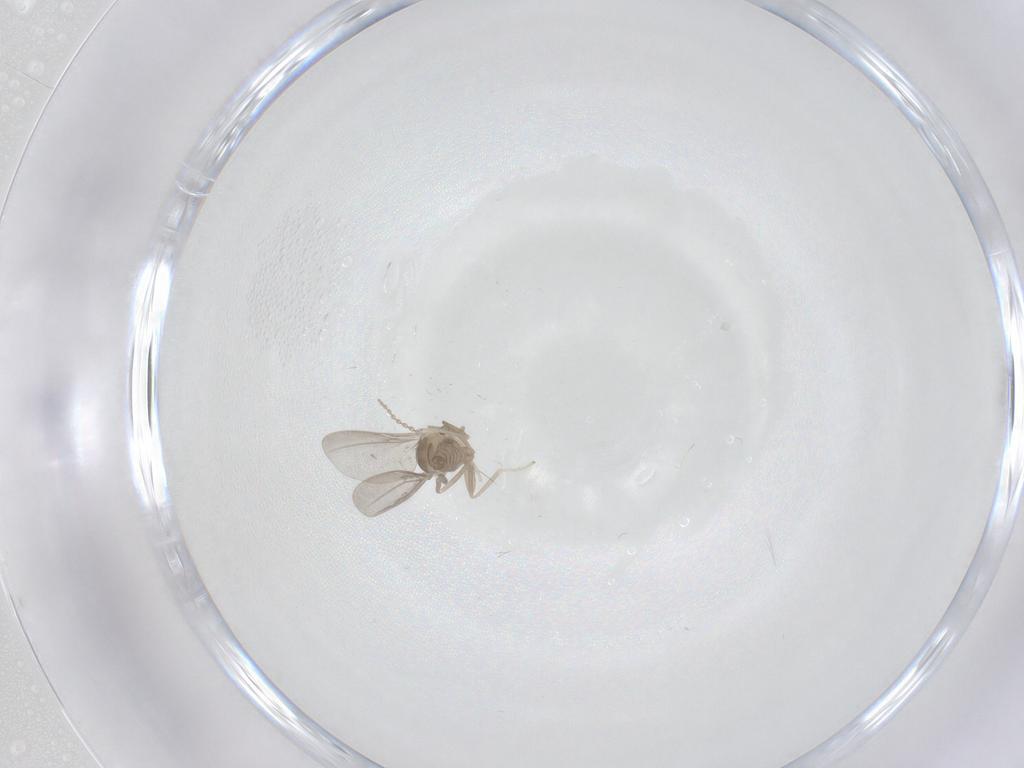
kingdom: Animalia
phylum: Arthropoda
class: Insecta
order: Diptera
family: Cecidomyiidae
